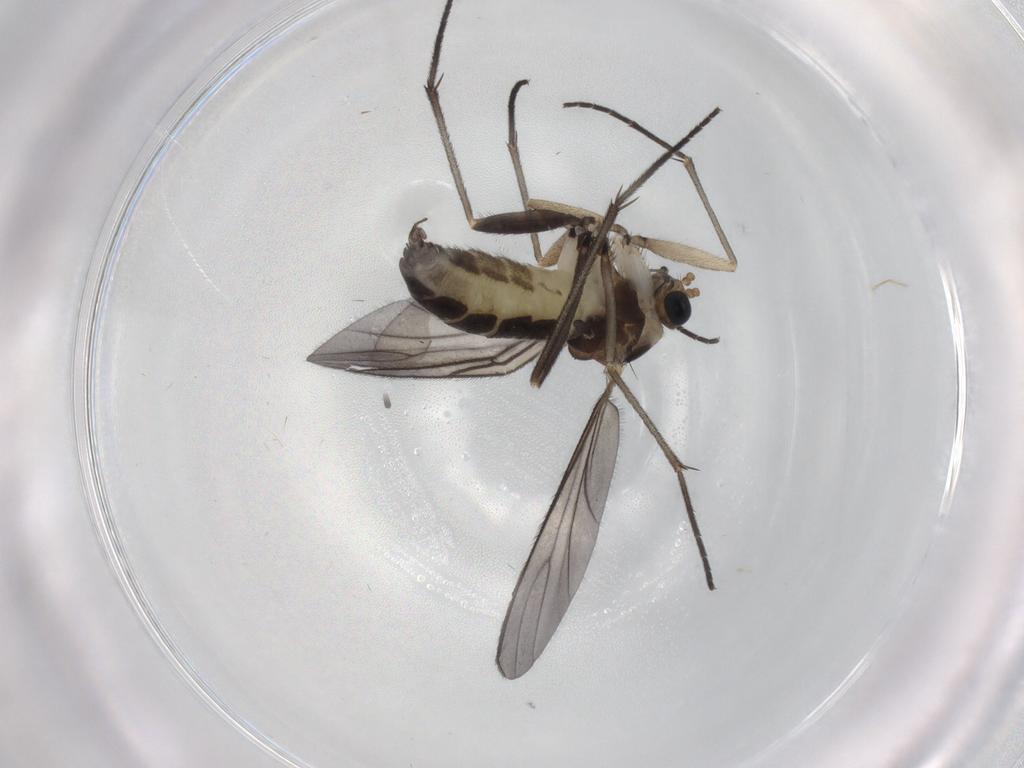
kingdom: Animalia
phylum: Arthropoda
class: Insecta
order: Diptera
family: Sciaridae
